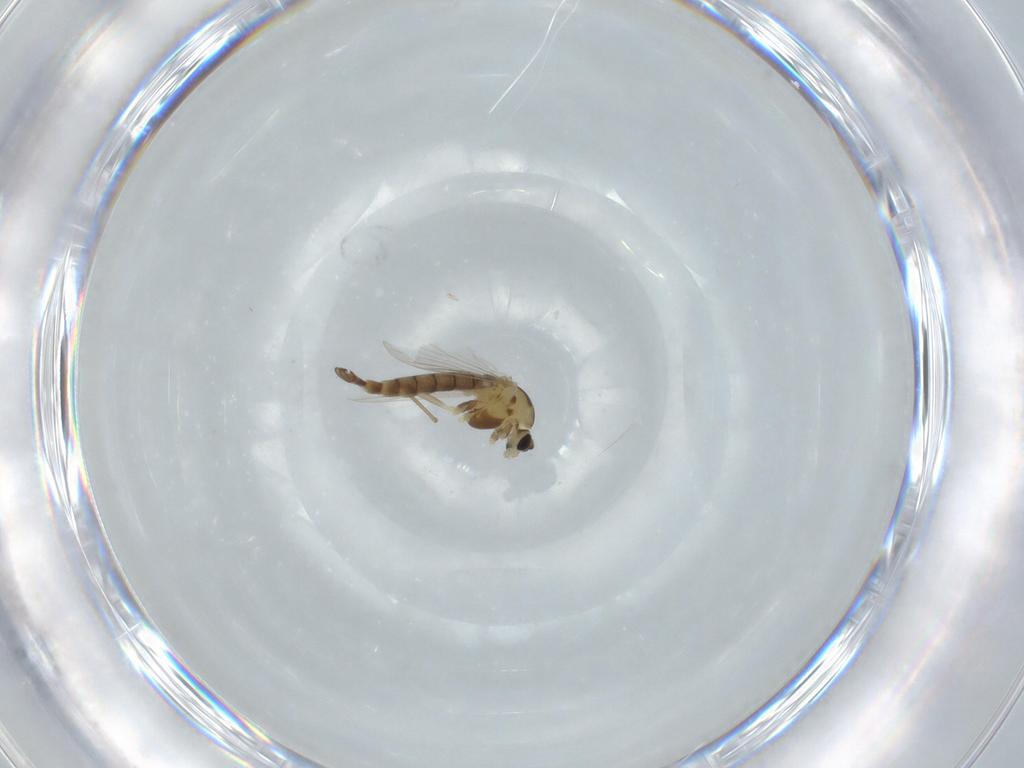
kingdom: Animalia
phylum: Arthropoda
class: Insecta
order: Diptera
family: Chironomidae
